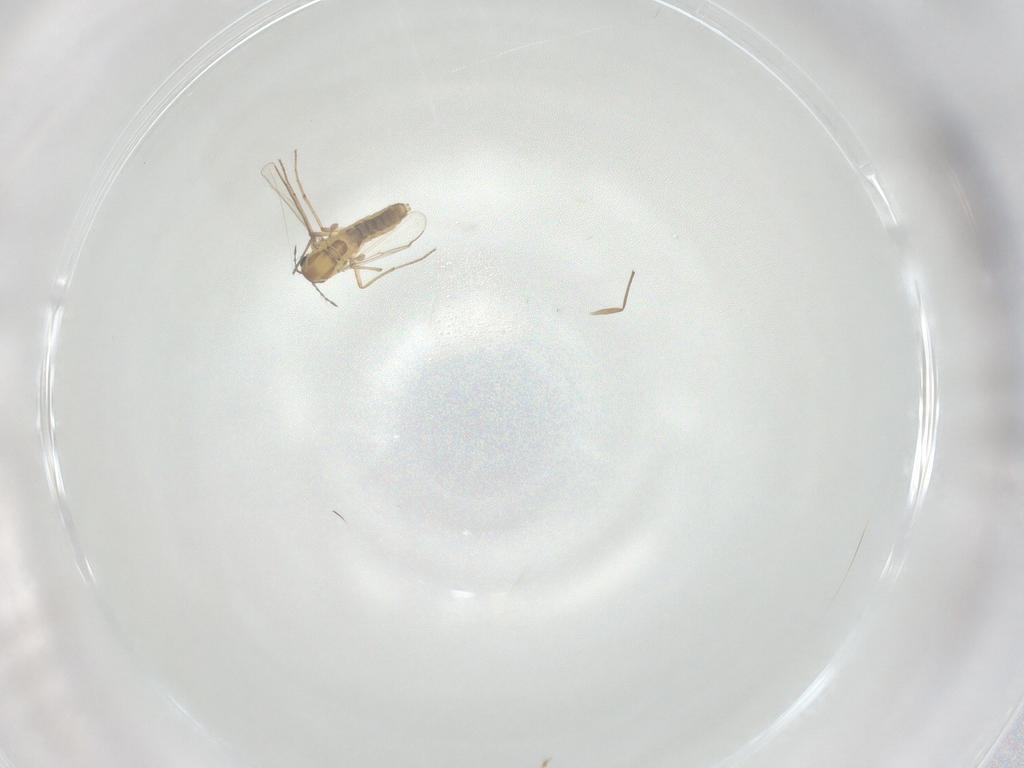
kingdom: Animalia
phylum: Arthropoda
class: Insecta
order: Diptera
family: Chironomidae
